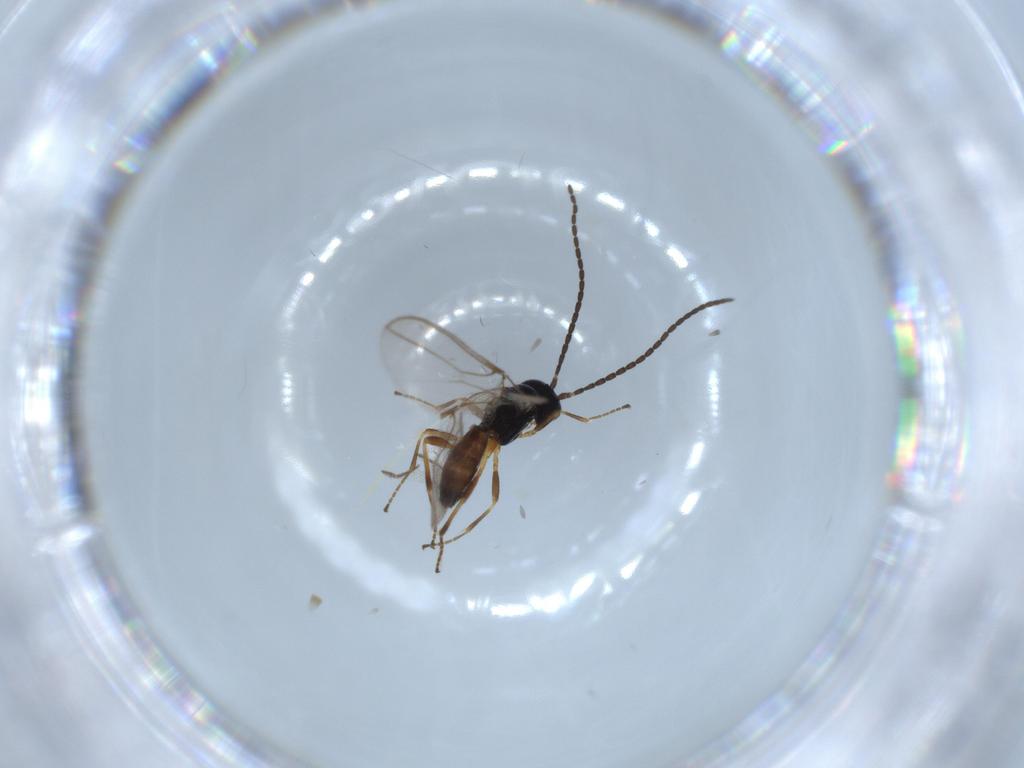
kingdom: Animalia
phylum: Arthropoda
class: Insecta
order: Hymenoptera
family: Braconidae
